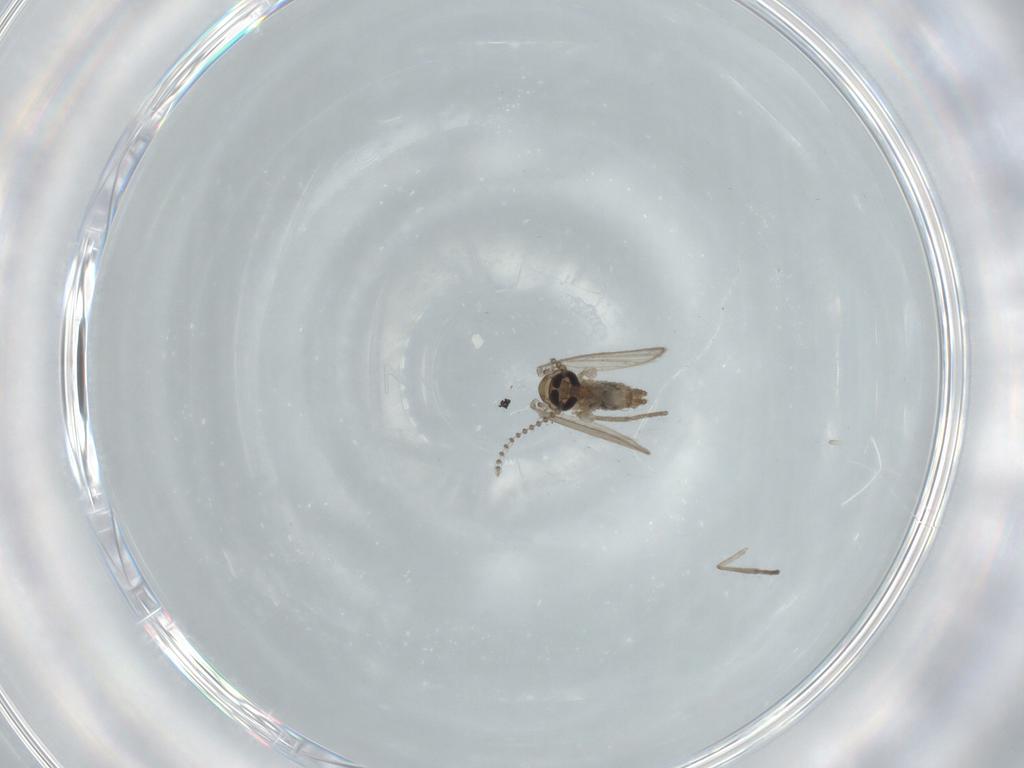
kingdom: Animalia
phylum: Arthropoda
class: Insecta
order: Diptera
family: Psychodidae
